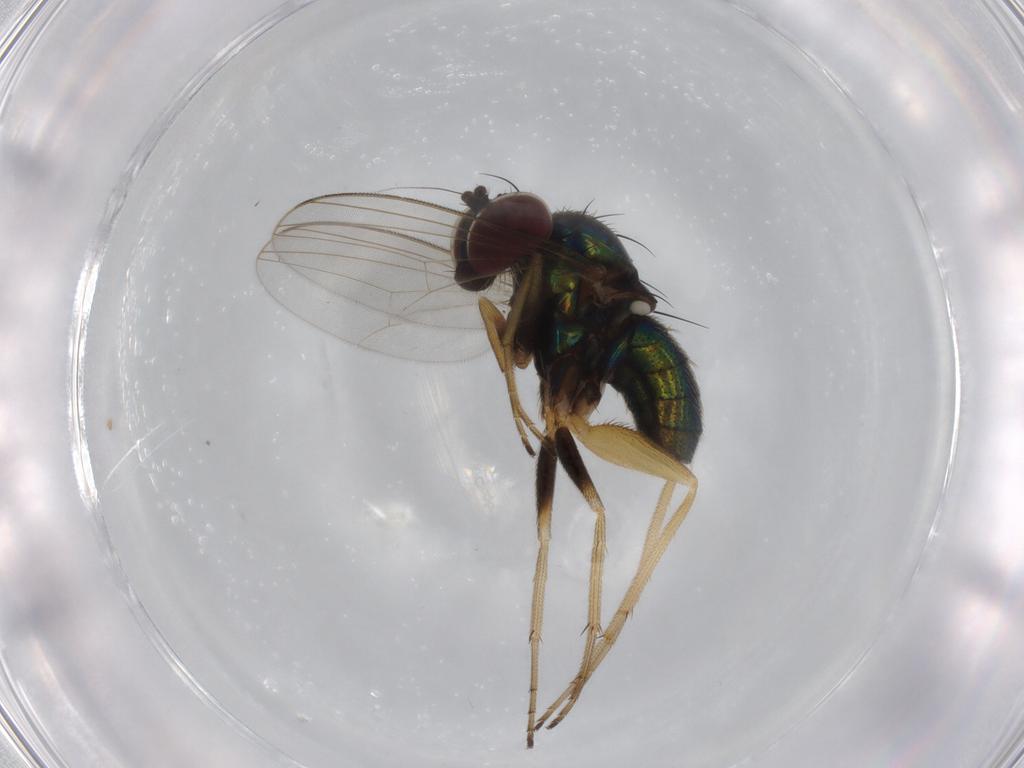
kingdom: Animalia
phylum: Arthropoda
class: Insecta
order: Diptera
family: Dolichopodidae
